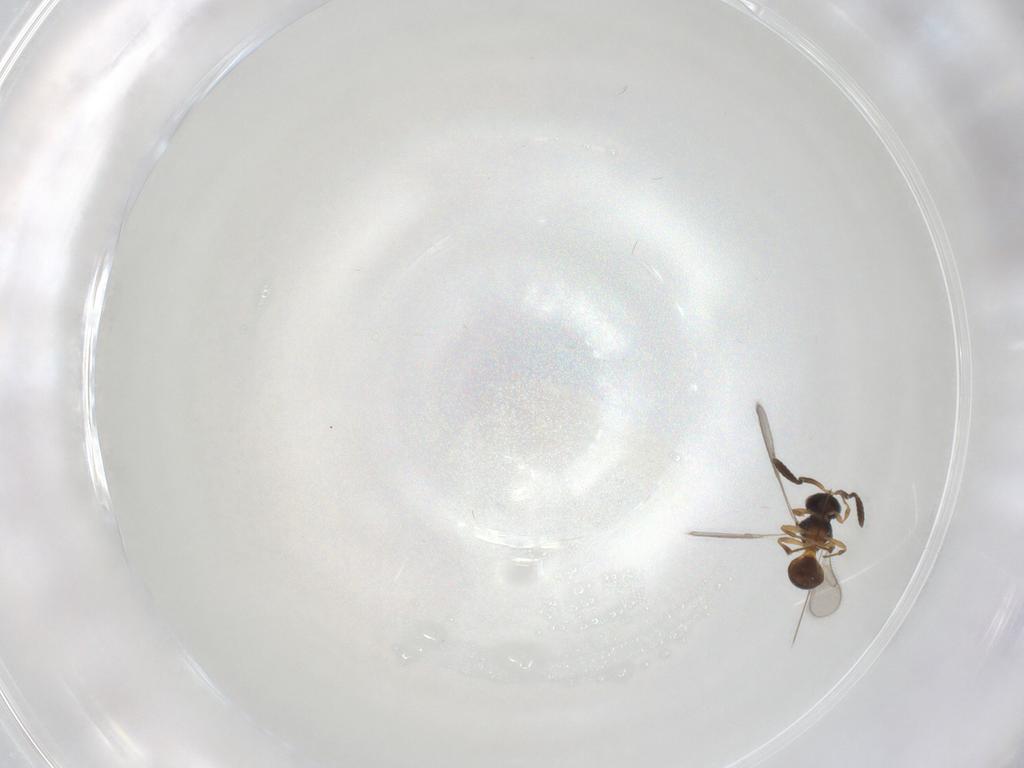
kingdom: Animalia
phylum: Arthropoda
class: Insecta
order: Hymenoptera
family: Scelionidae
